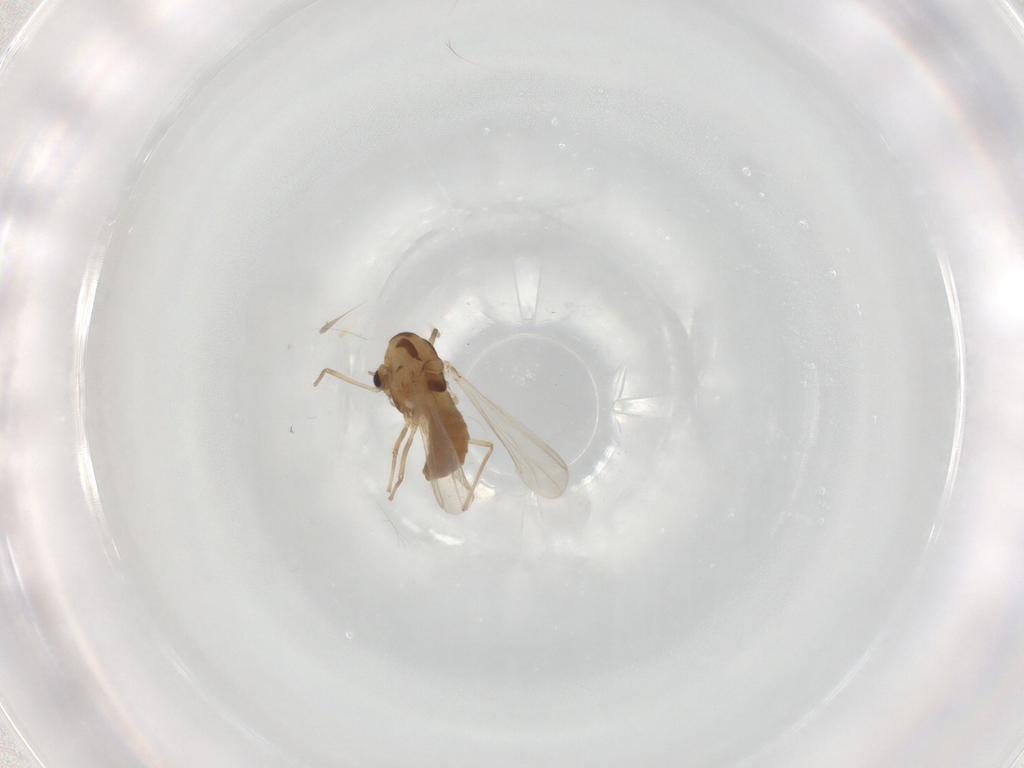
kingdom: Animalia
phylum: Arthropoda
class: Insecta
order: Diptera
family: Chironomidae
